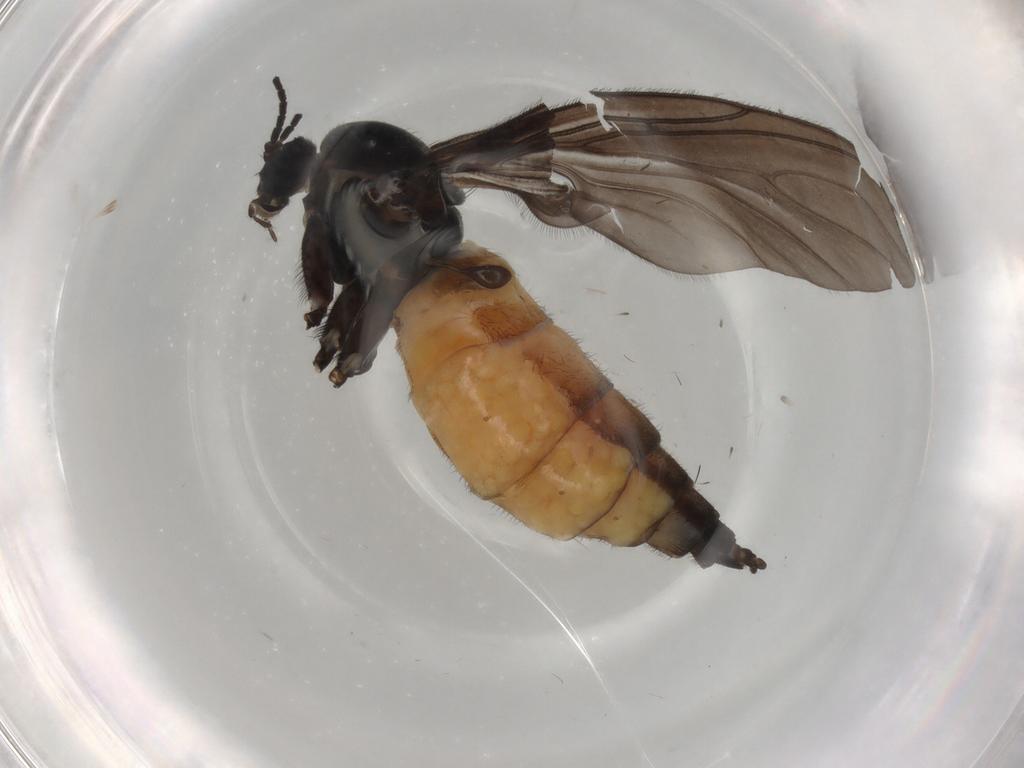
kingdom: Animalia
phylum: Arthropoda
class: Insecta
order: Diptera
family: Sciaridae
